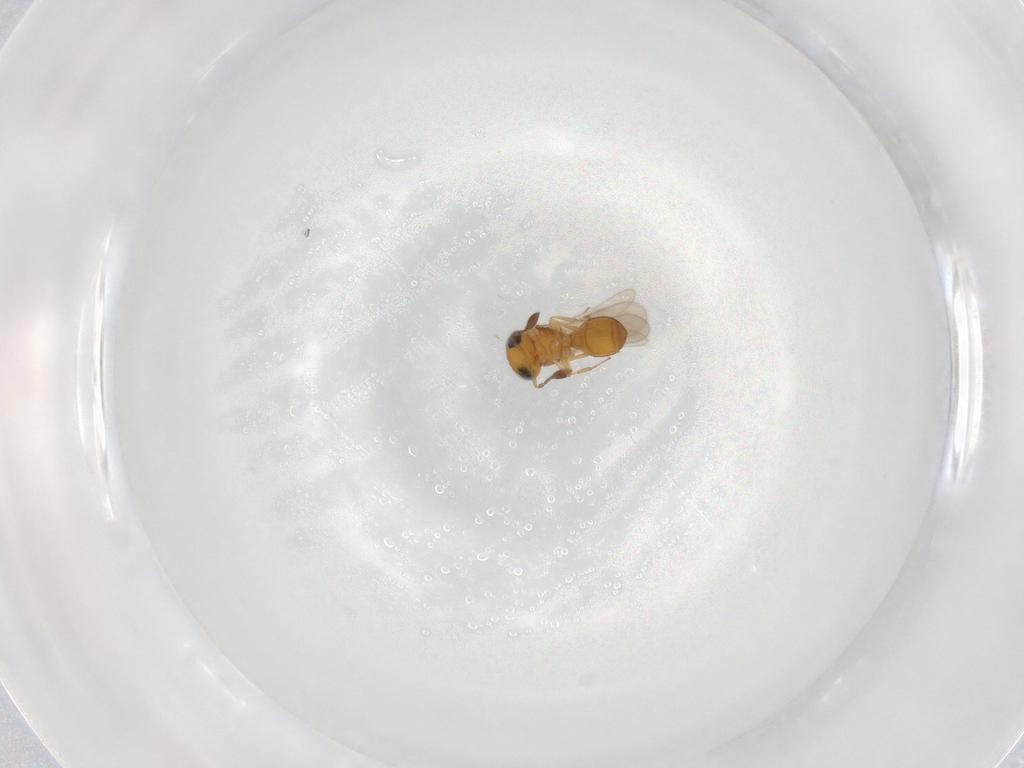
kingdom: Animalia
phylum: Arthropoda
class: Insecta
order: Hymenoptera
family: Scelionidae
